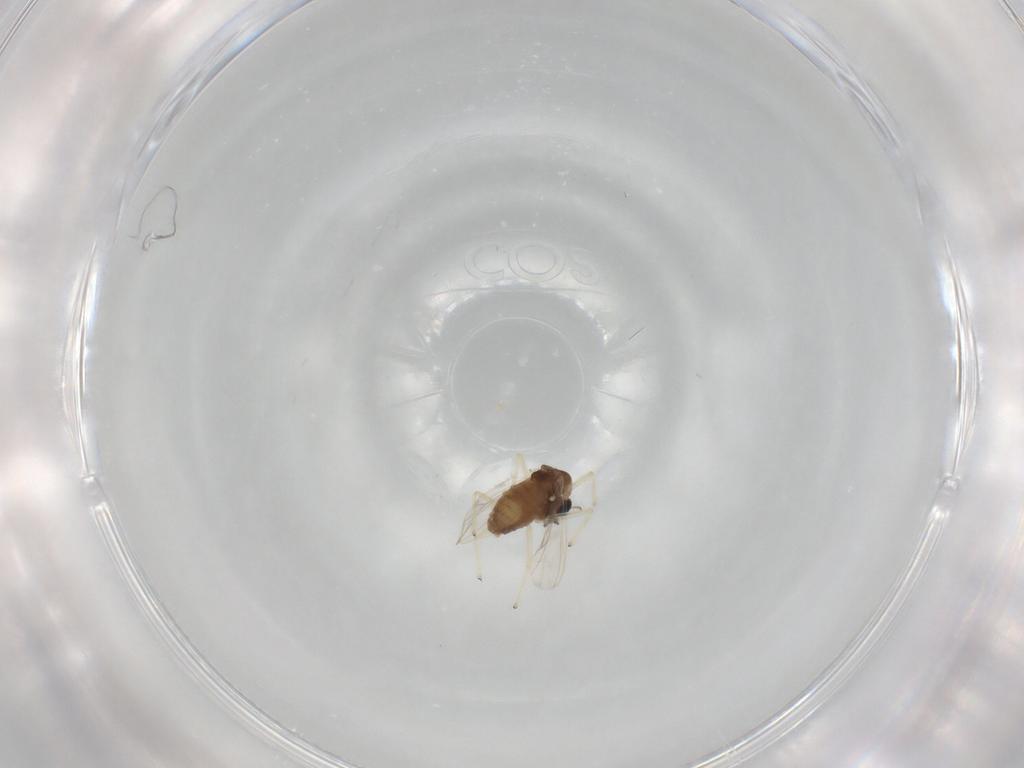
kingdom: Animalia
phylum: Arthropoda
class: Insecta
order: Diptera
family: Chironomidae
